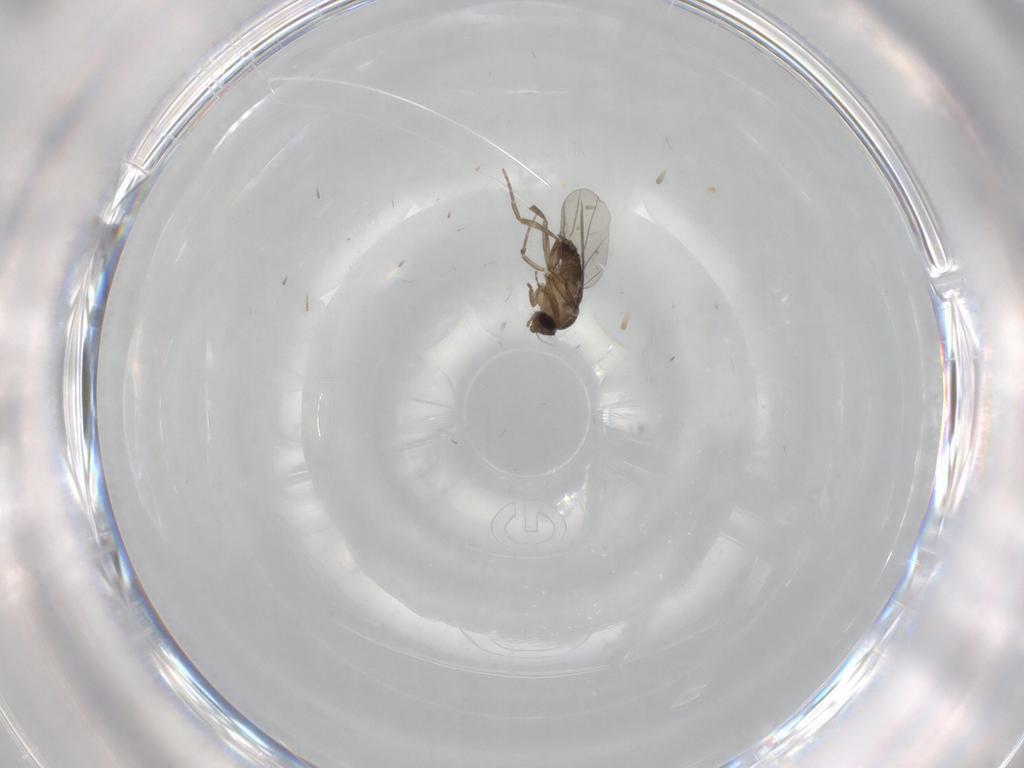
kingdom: Animalia
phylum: Arthropoda
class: Insecta
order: Diptera
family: Phoridae
